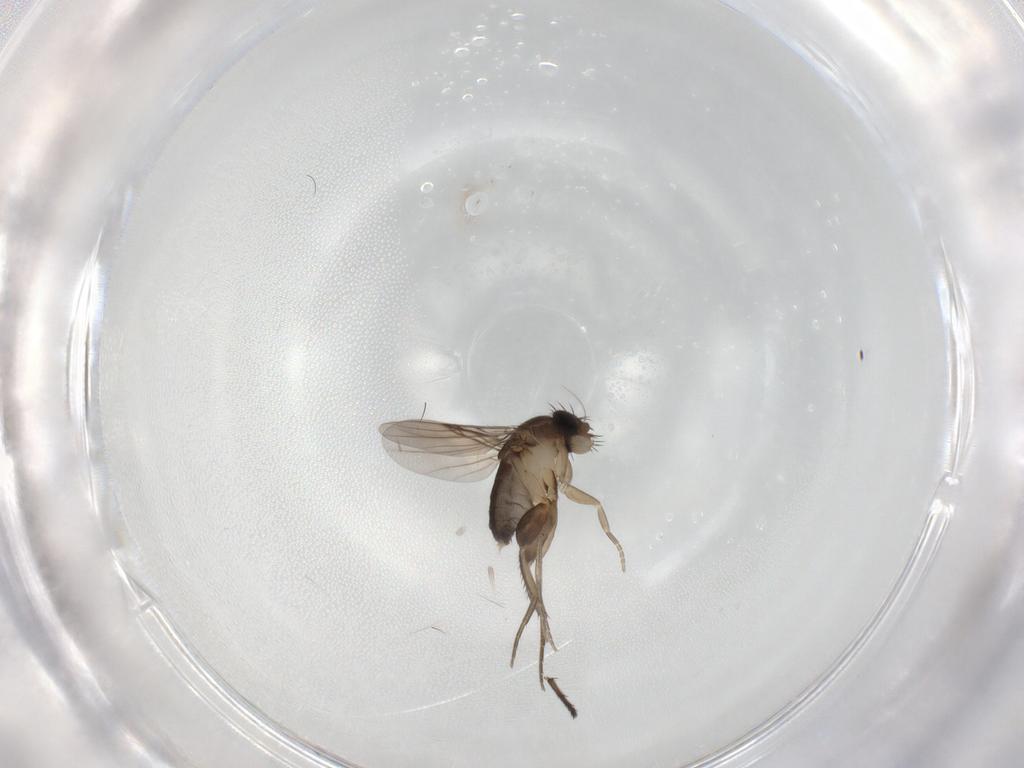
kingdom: Animalia
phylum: Arthropoda
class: Insecta
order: Diptera
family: Phoridae
